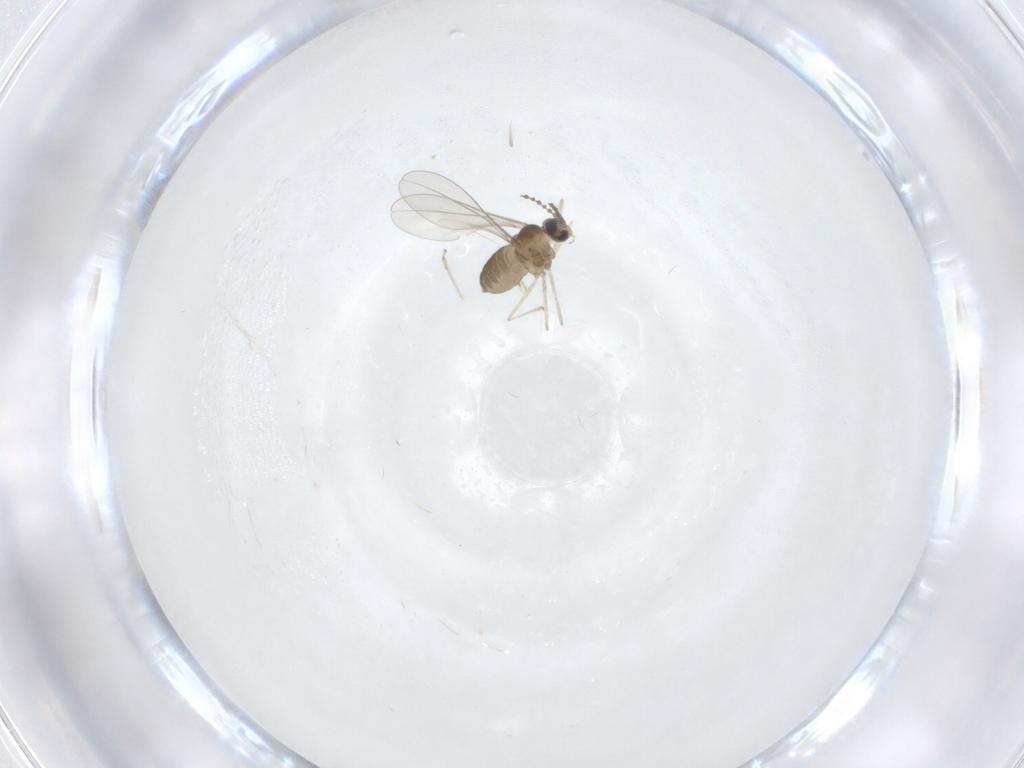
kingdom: Animalia
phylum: Arthropoda
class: Insecta
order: Diptera
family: Cecidomyiidae
